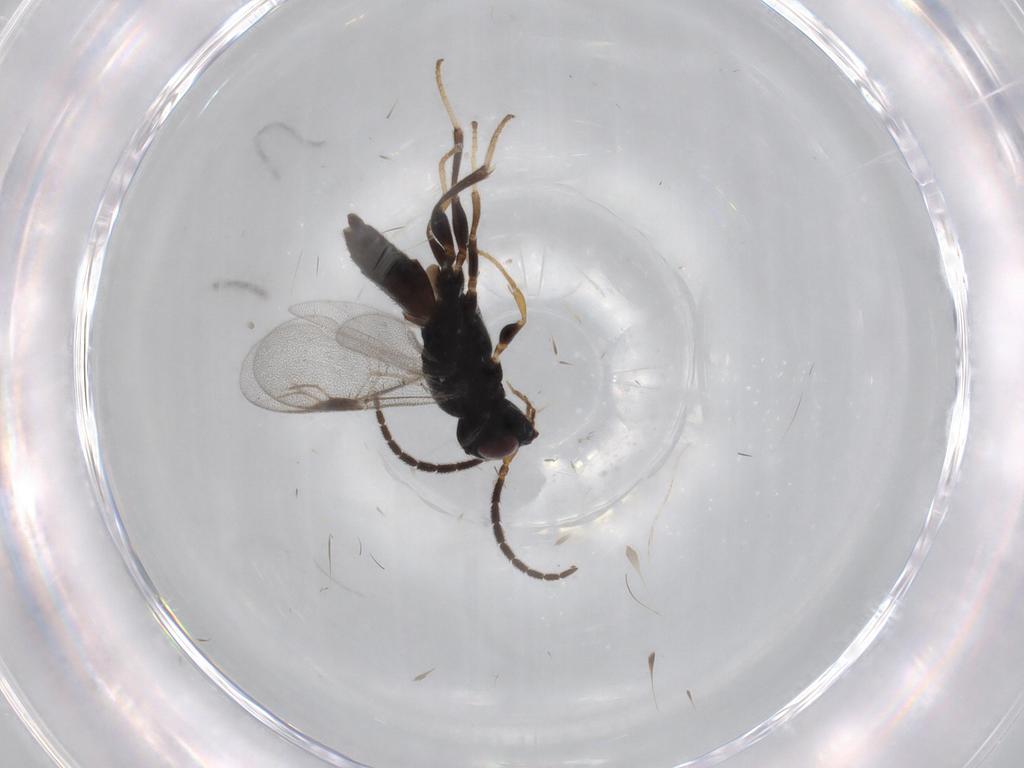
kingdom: Animalia
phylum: Arthropoda
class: Insecta
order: Hymenoptera
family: Dryinidae
